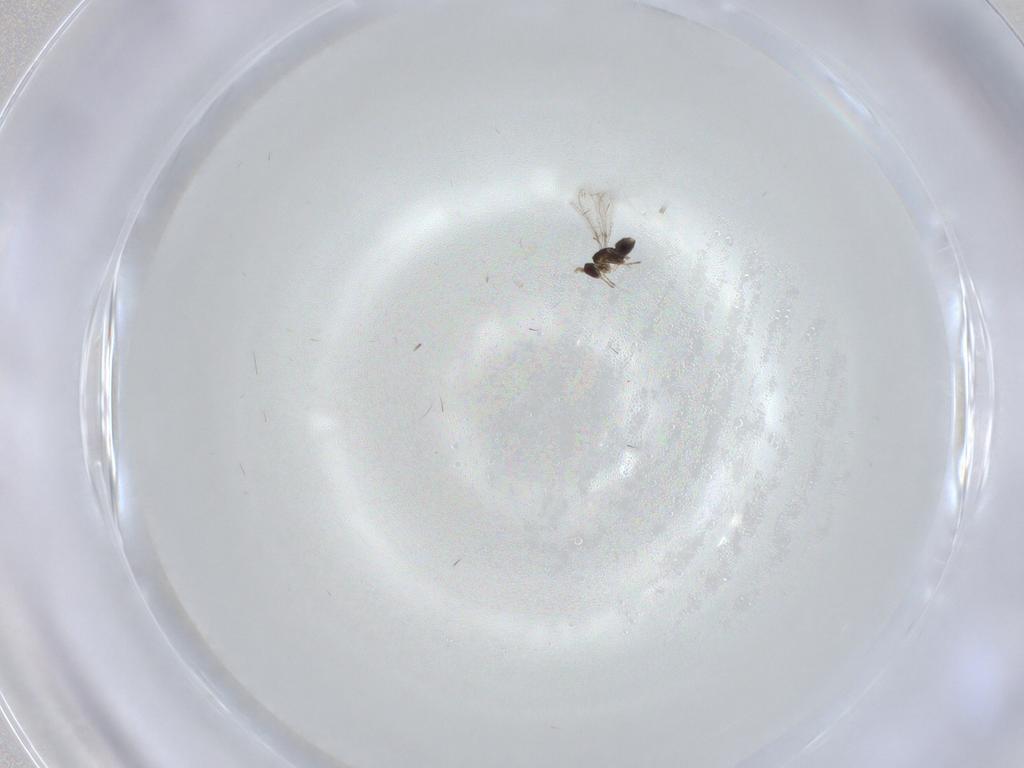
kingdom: Animalia
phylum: Arthropoda
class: Insecta
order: Hymenoptera
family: Mymaridae
